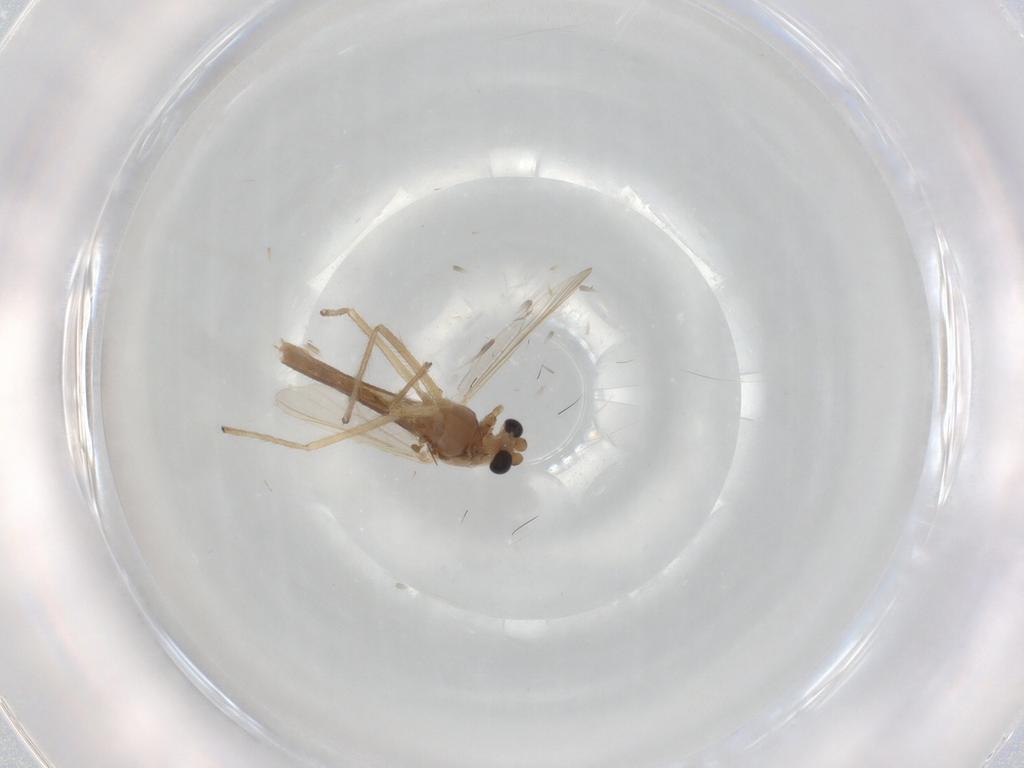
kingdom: Animalia
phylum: Arthropoda
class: Insecta
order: Diptera
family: Chironomidae
